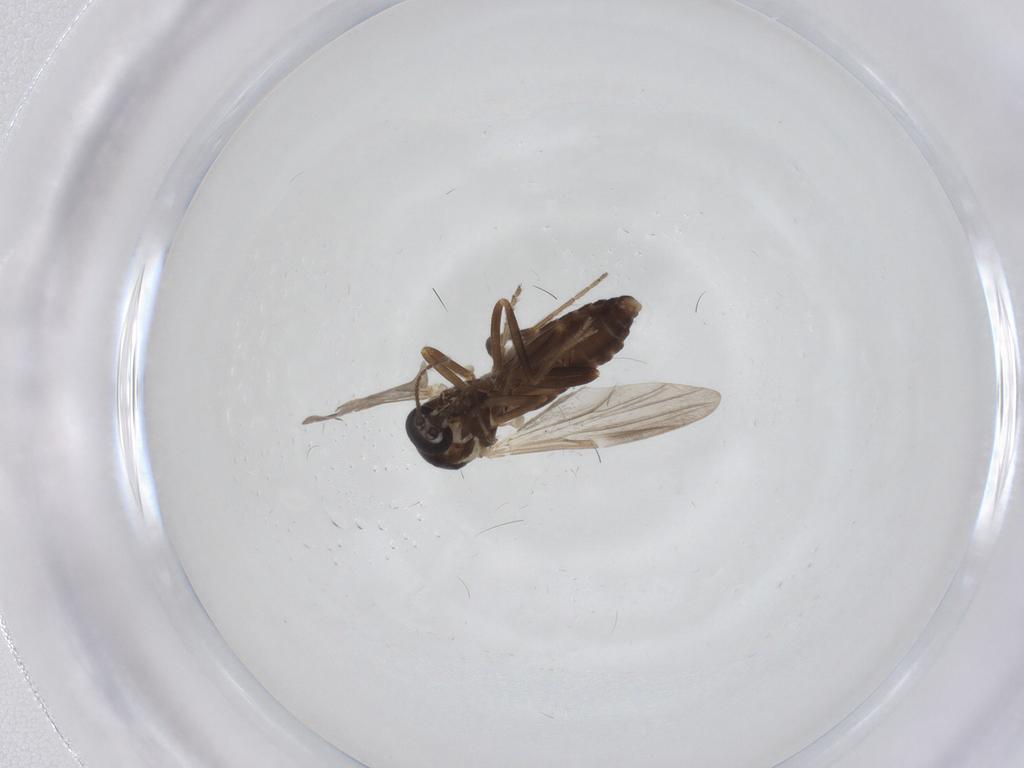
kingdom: Animalia
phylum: Arthropoda
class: Insecta
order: Diptera
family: Ceratopogonidae
